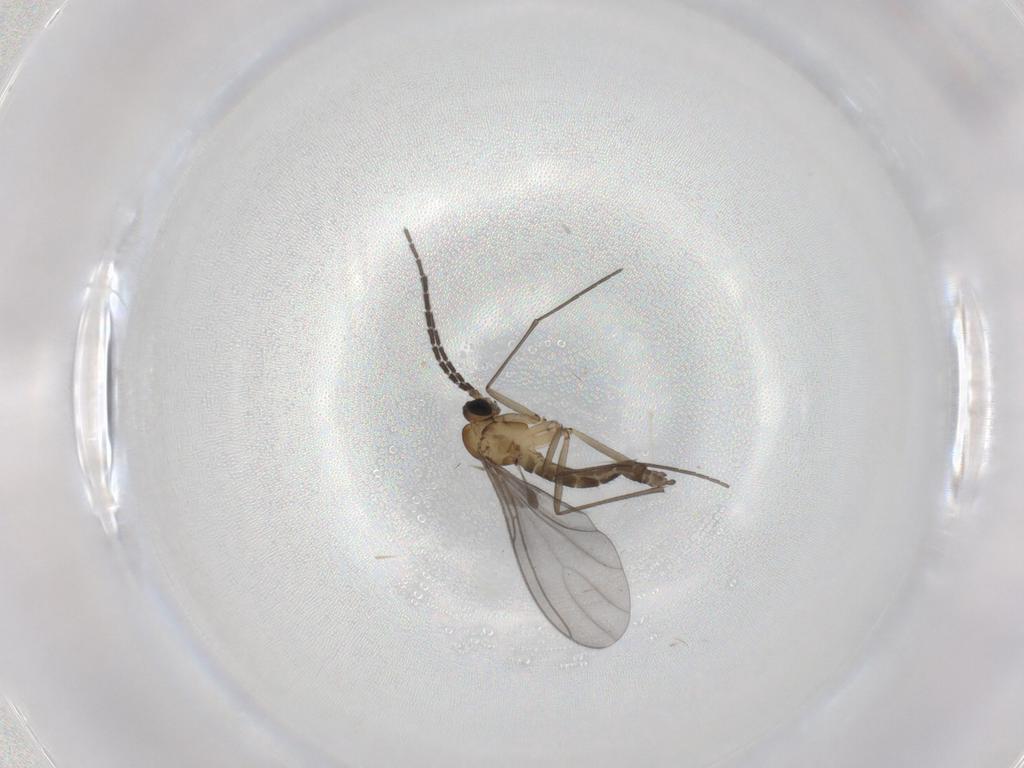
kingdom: Animalia
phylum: Arthropoda
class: Insecta
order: Diptera
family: Sciaridae
